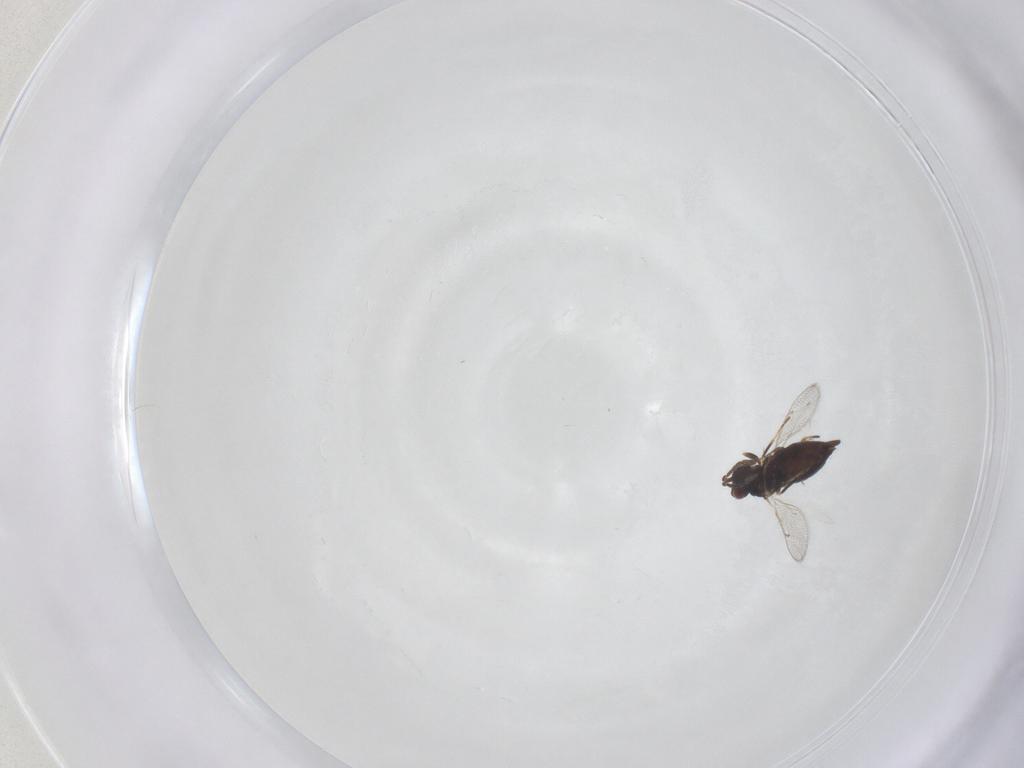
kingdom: Animalia
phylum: Arthropoda
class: Insecta
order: Hymenoptera
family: Eulophidae
